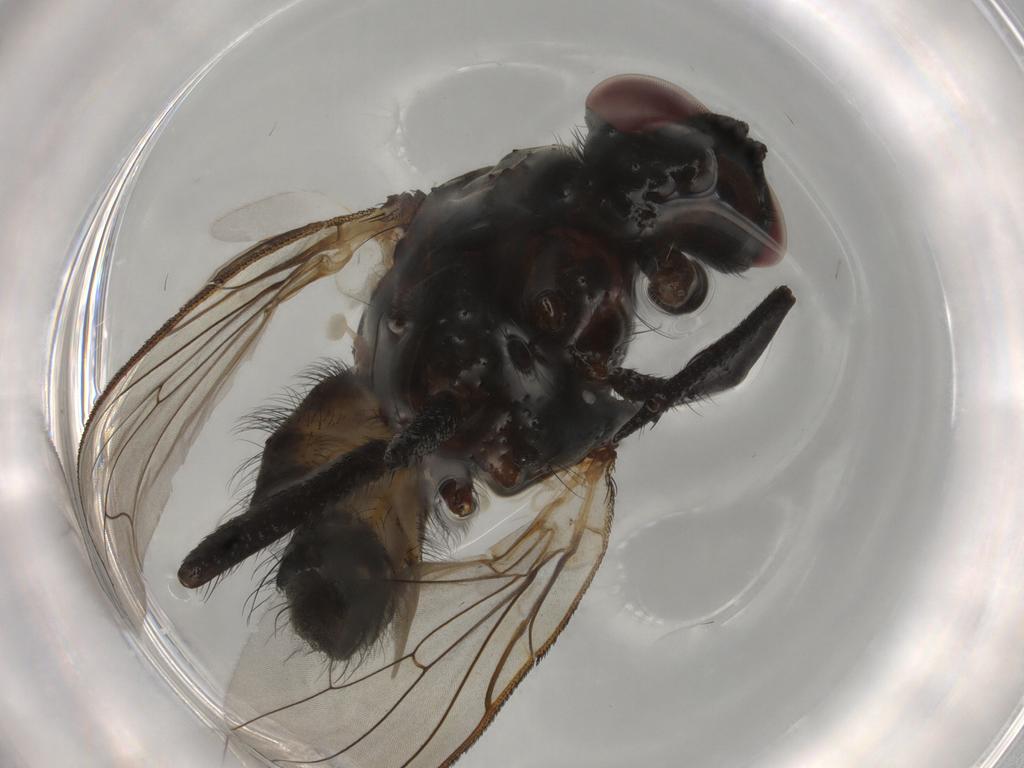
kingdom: Animalia
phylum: Arthropoda
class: Insecta
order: Diptera
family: Anthomyiidae
